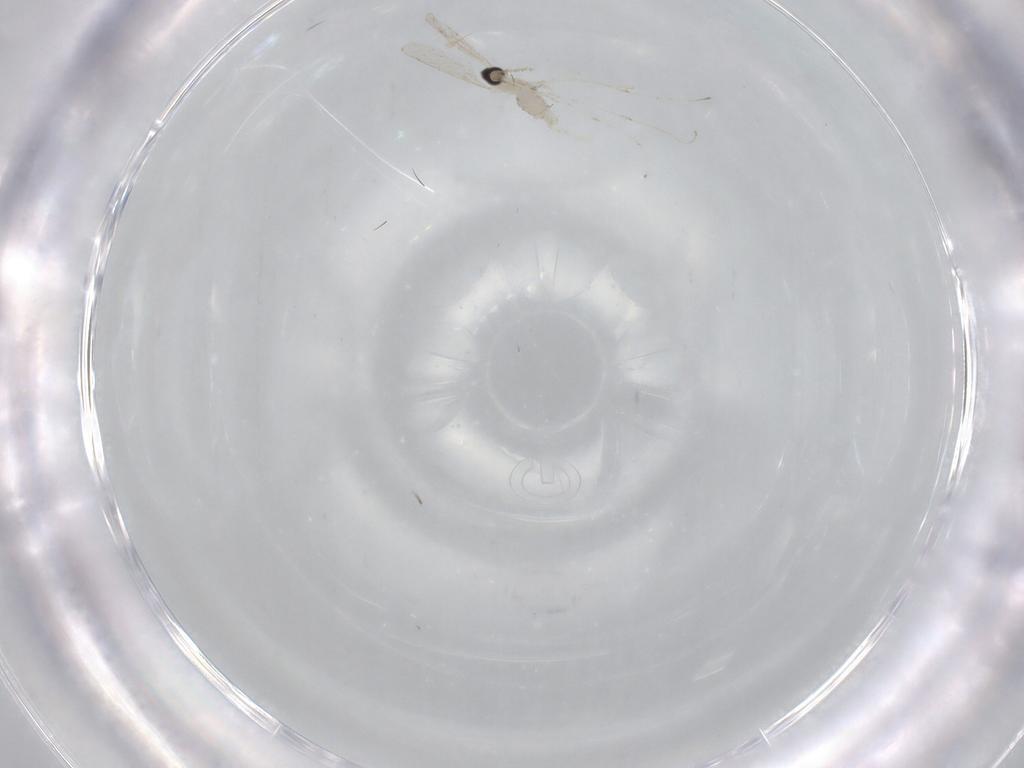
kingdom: Animalia
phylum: Arthropoda
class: Insecta
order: Diptera
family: Cecidomyiidae
